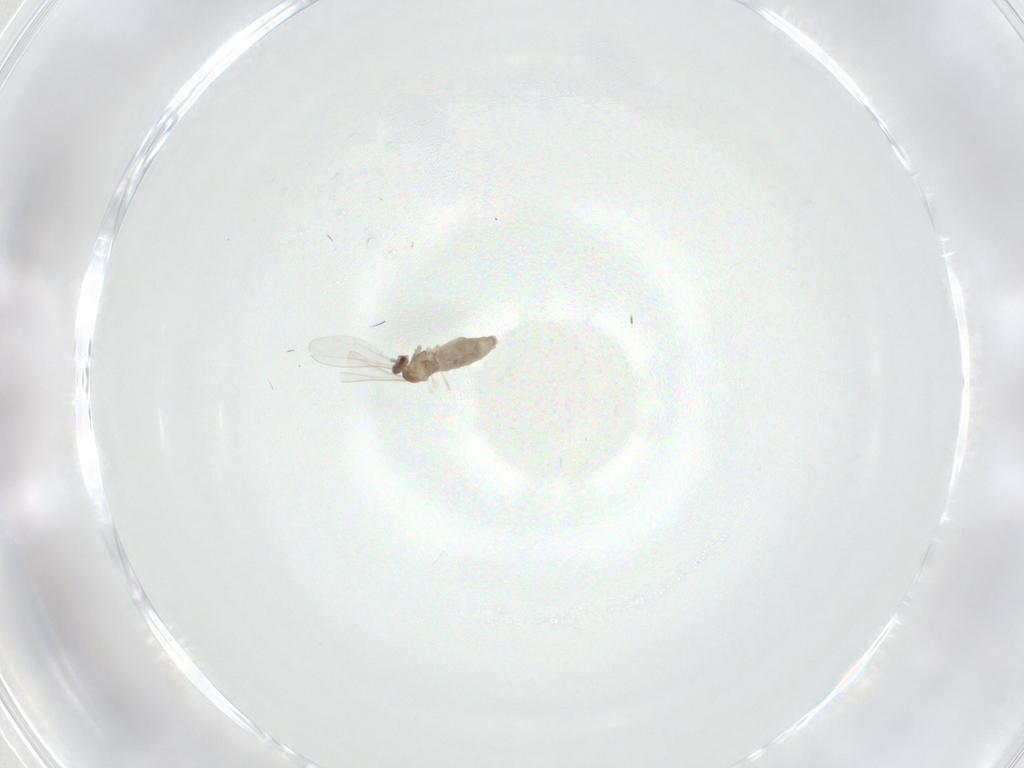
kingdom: Animalia
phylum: Arthropoda
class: Insecta
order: Diptera
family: Cecidomyiidae
